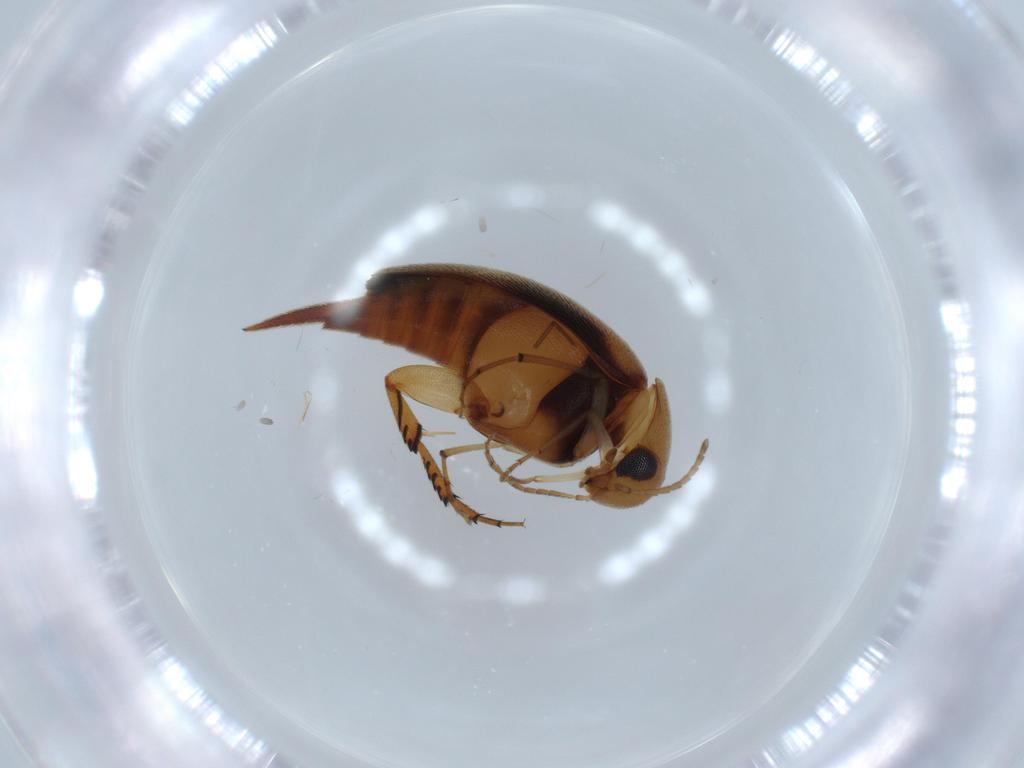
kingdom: Animalia
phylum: Arthropoda
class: Insecta
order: Coleoptera
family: Mordellidae
